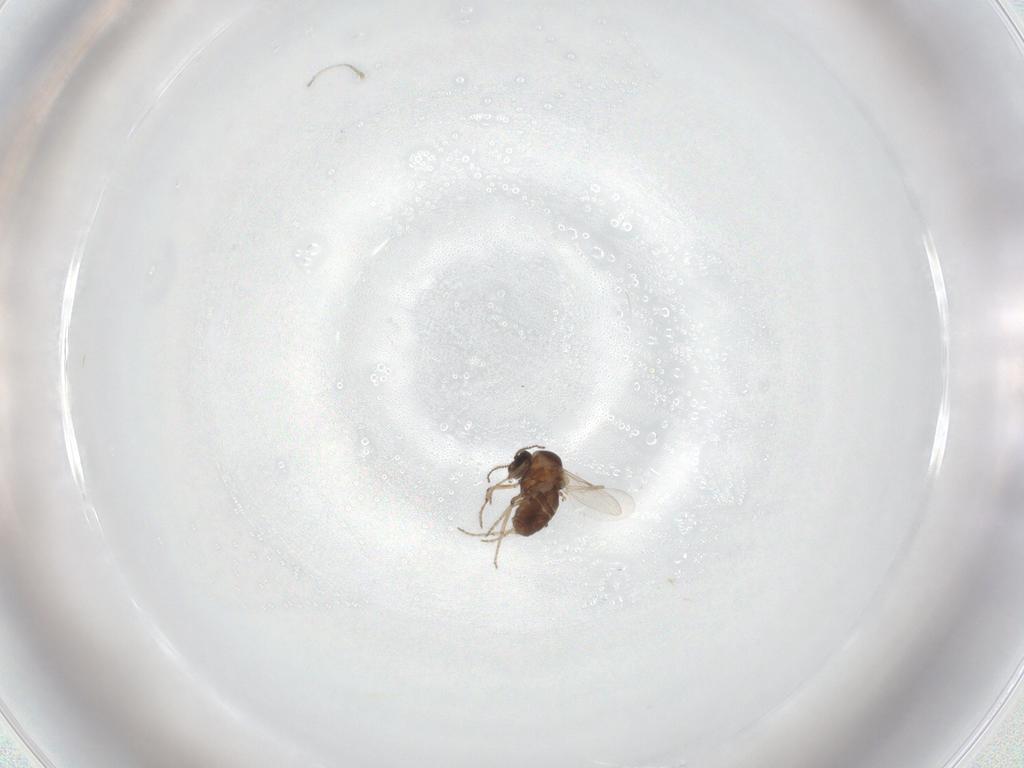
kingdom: Animalia
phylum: Arthropoda
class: Insecta
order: Diptera
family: Ceratopogonidae
